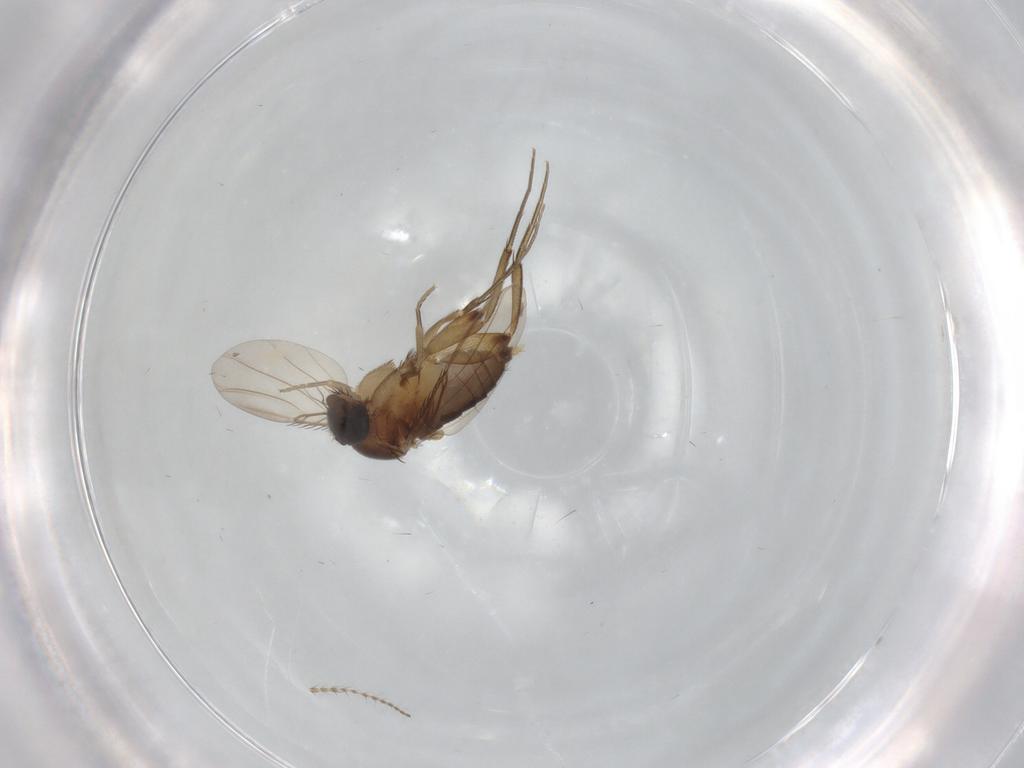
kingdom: Animalia
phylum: Arthropoda
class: Insecta
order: Diptera
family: Phoridae
